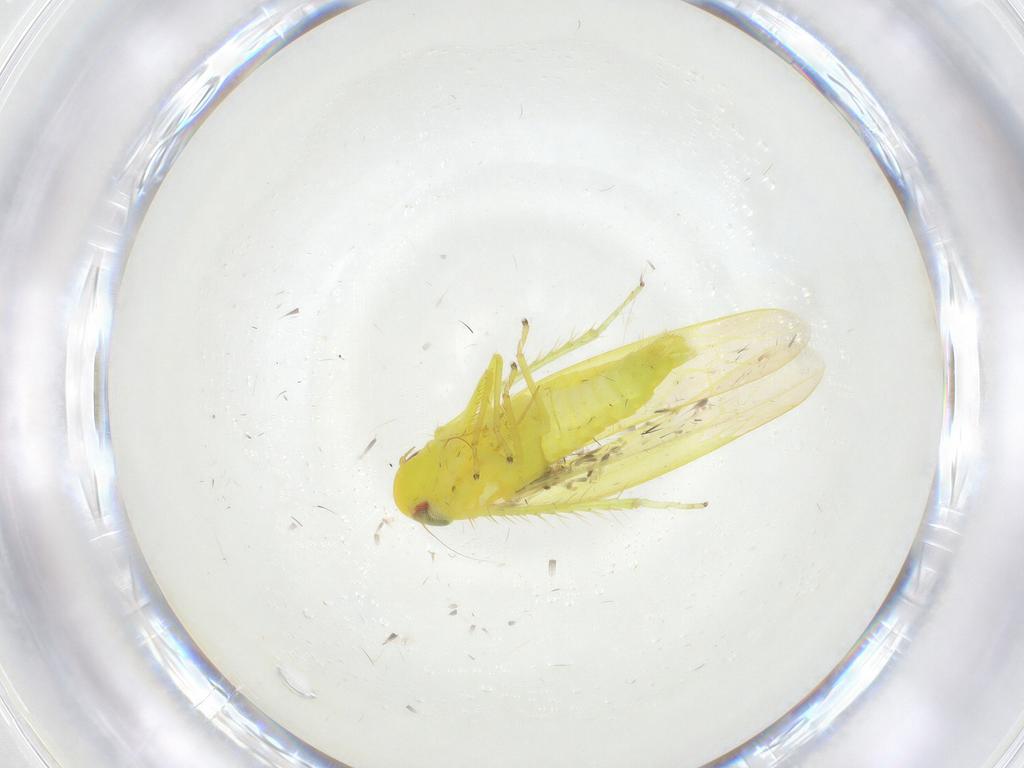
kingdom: Animalia
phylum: Arthropoda
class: Insecta
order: Hemiptera
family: Cicadellidae
